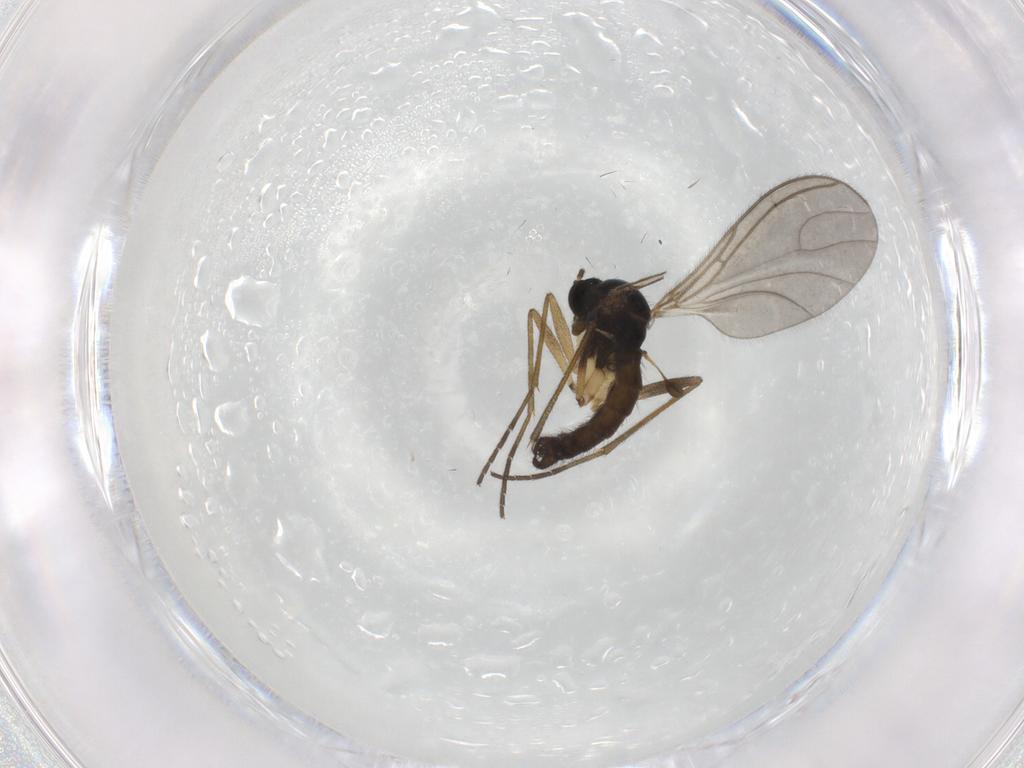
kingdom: Animalia
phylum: Arthropoda
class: Insecta
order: Diptera
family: Sciaridae
